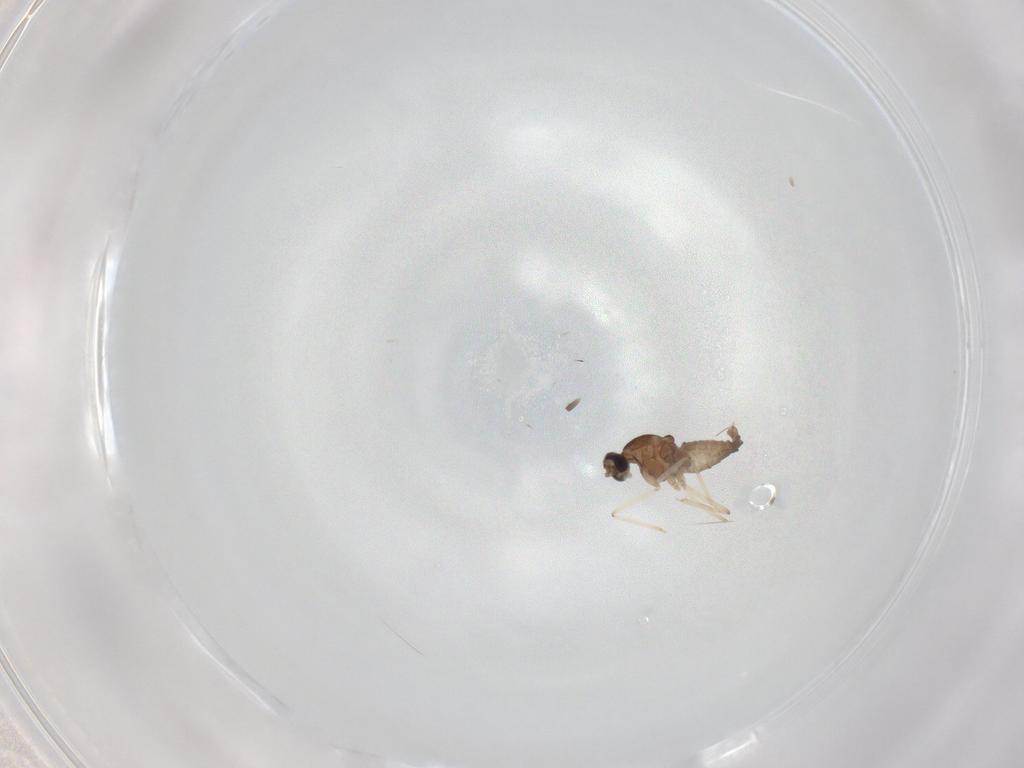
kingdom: Animalia
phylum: Arthropoda
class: Insecta
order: Diptera
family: Cecidomyiidae
